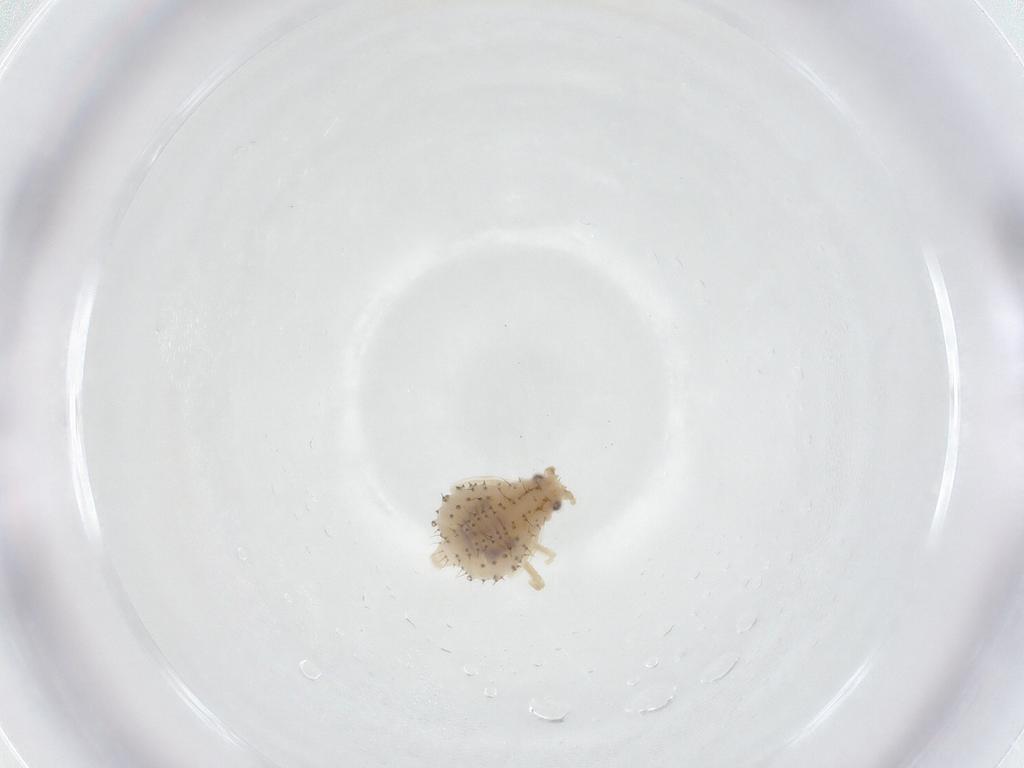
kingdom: Animalia
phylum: Arthropoda
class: Insecta
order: Hemiptera
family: Aphididae
